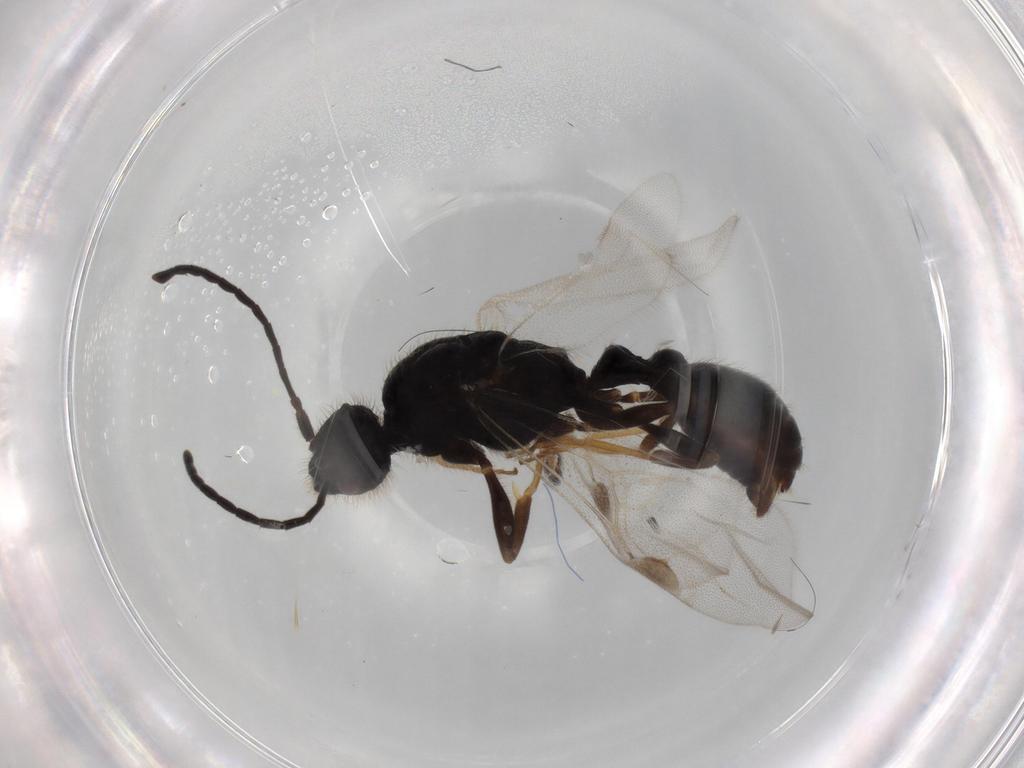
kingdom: Animalia
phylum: Arthropoda
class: Insecta
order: Hymenoptera
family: Formicidae
